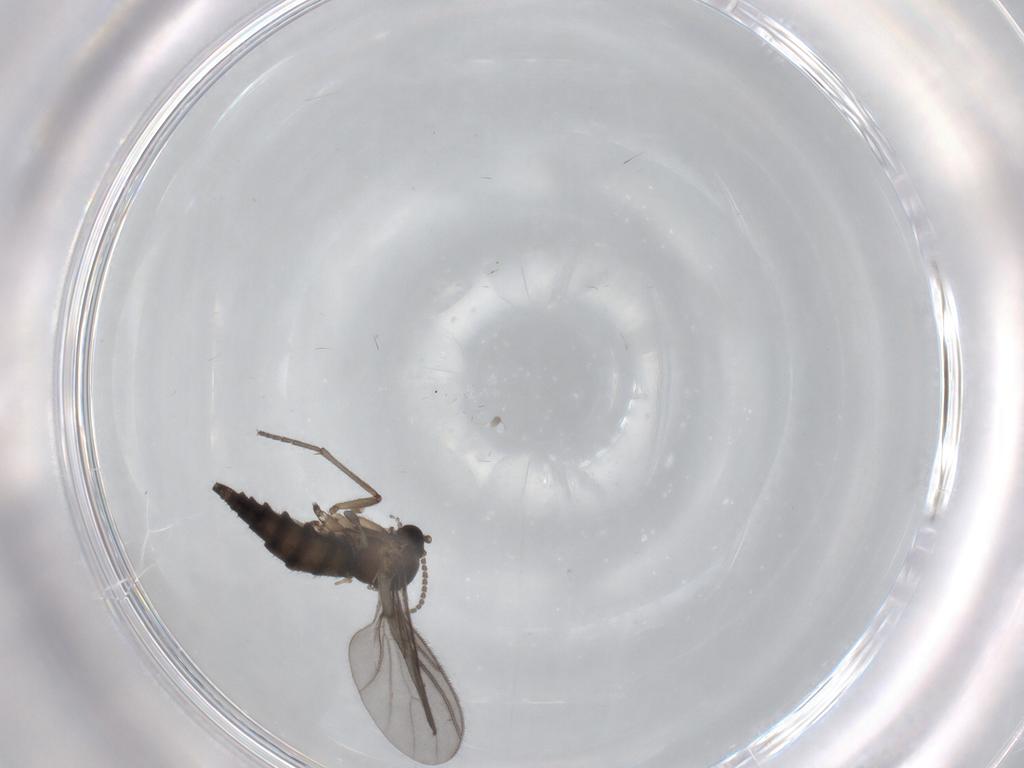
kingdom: Animalia
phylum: Arthropoda
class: Insecta
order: Diptera
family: Sciaridae
